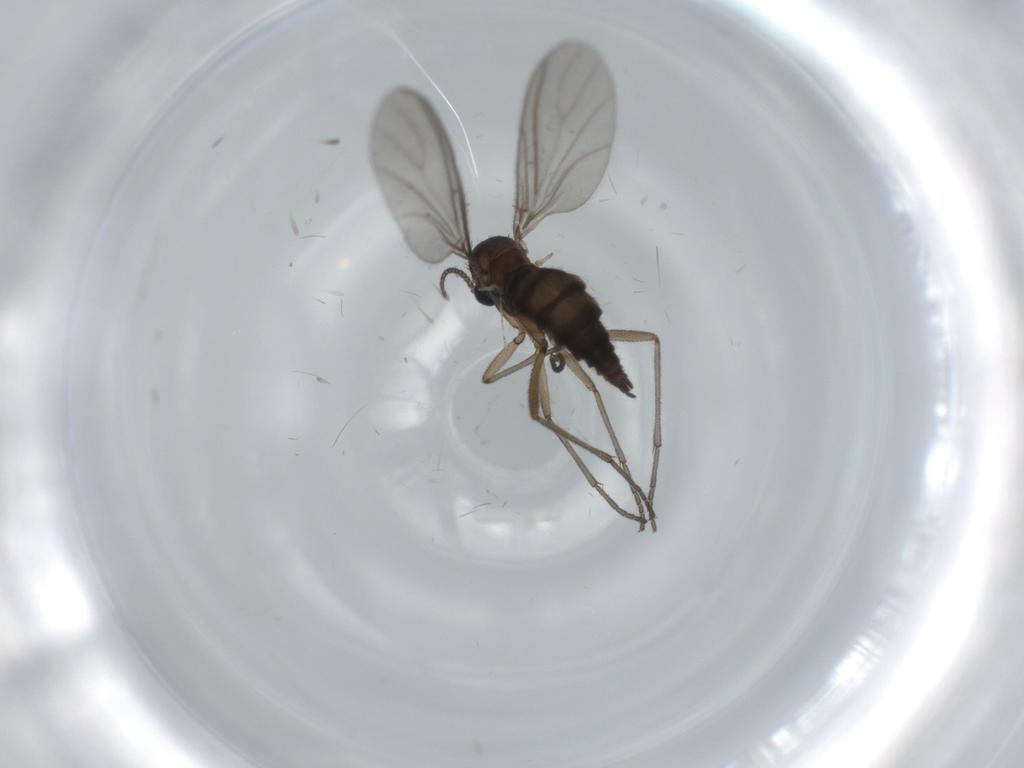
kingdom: Animalia
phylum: Arthropoda
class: Insecta
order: Diptera
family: Sciaridae
